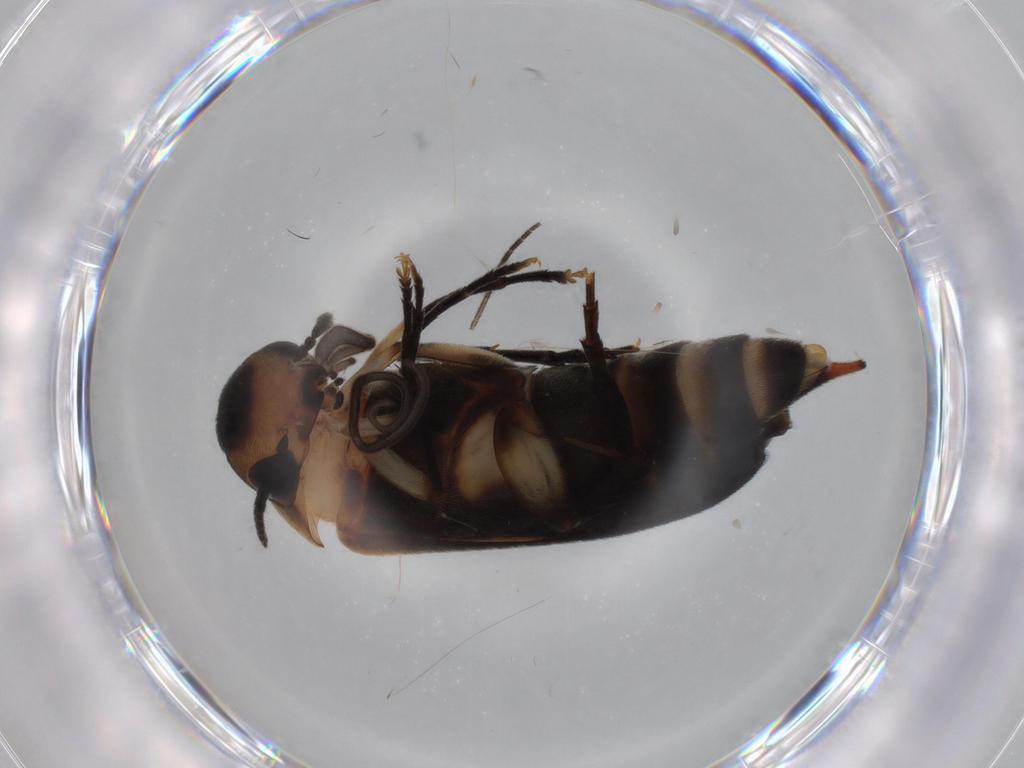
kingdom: Animalia
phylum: Arthropoda
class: Insecta
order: Coleoptera
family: Mordellidae
